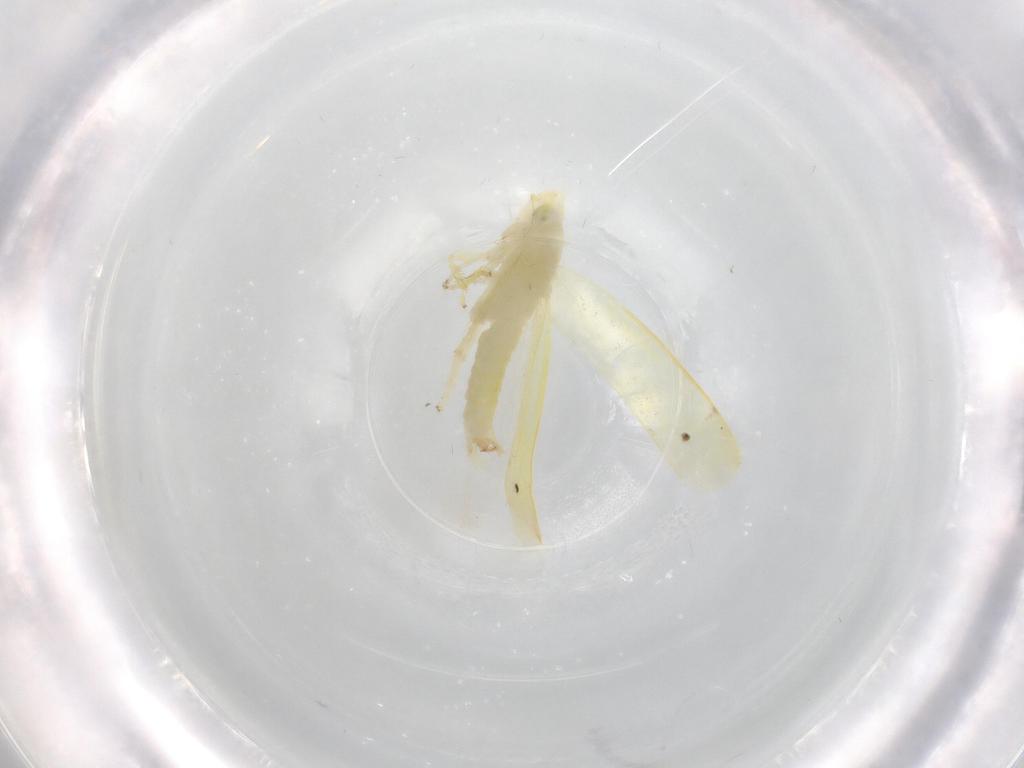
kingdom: Animalia
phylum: Arthropoda
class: Insecta
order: Hemiptera
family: Cicadellidae
